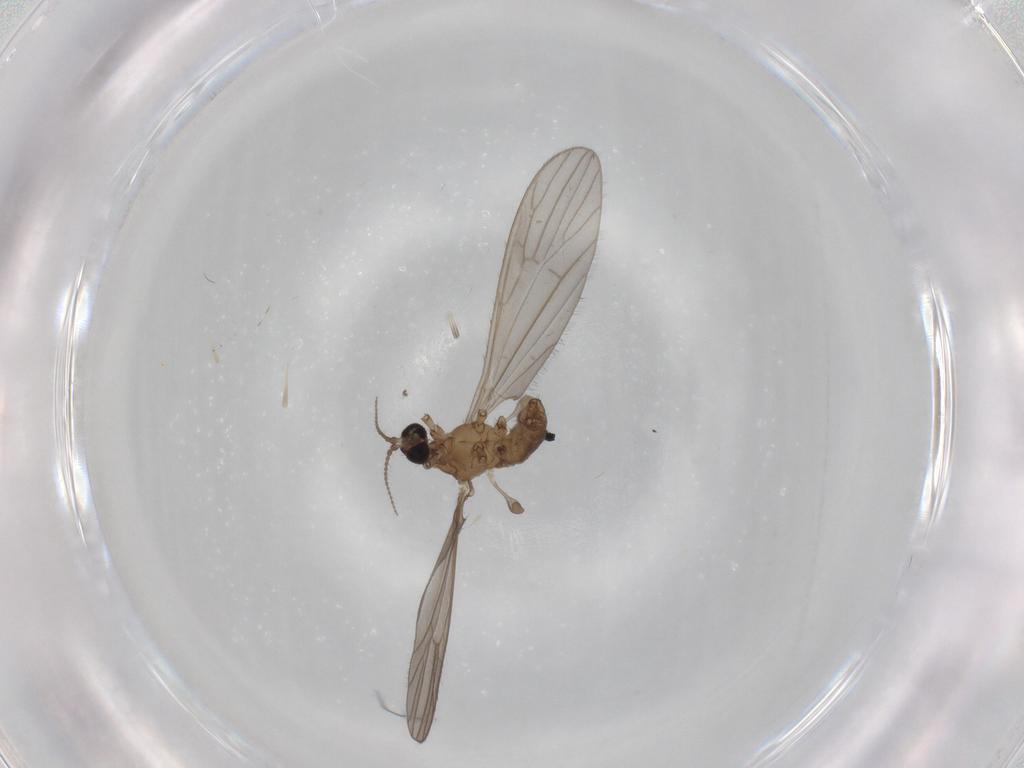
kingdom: Animalia
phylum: Arthropoda
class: Insecta
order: Diptera
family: Limoniidae
